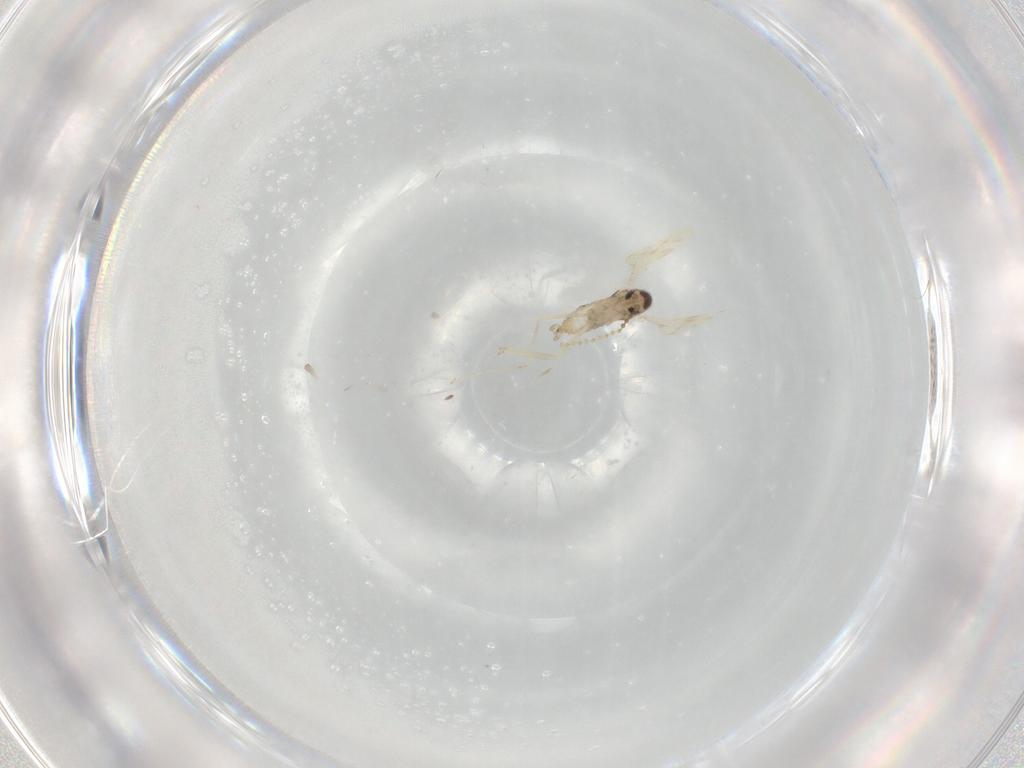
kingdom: Animalia
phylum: Arthropoda
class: Insecta
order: Diptera
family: Cecidomyiidae
